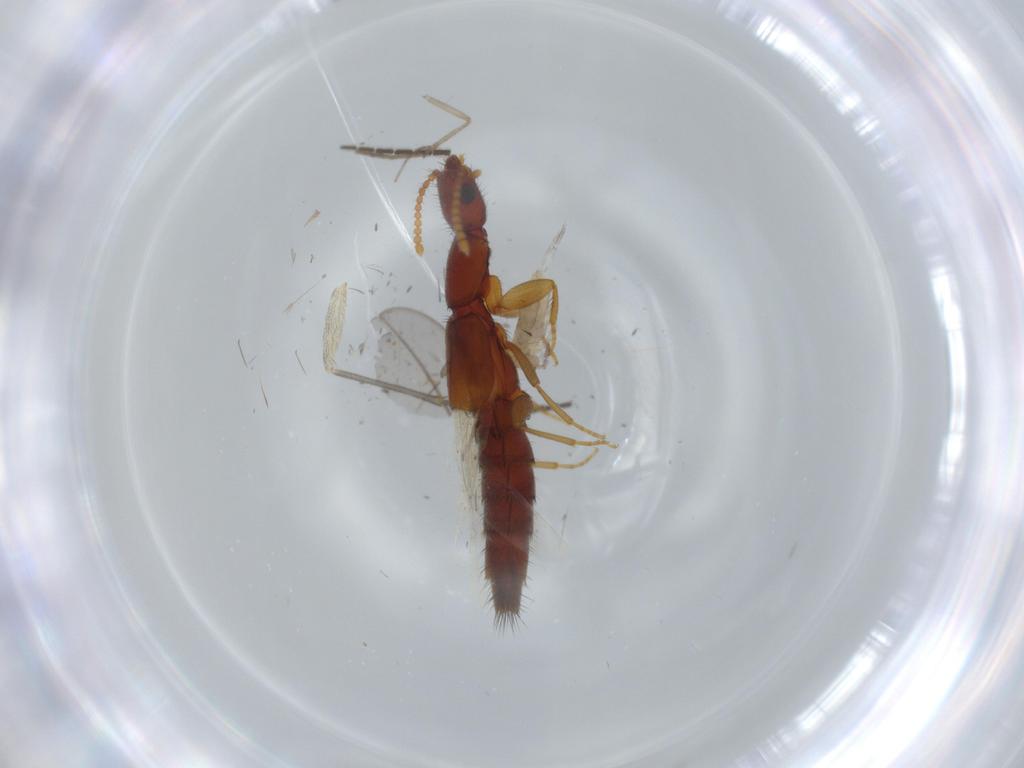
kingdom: Animalia
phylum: Arthropoda
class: Insecta
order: Coleoptera
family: Staphylinidae
